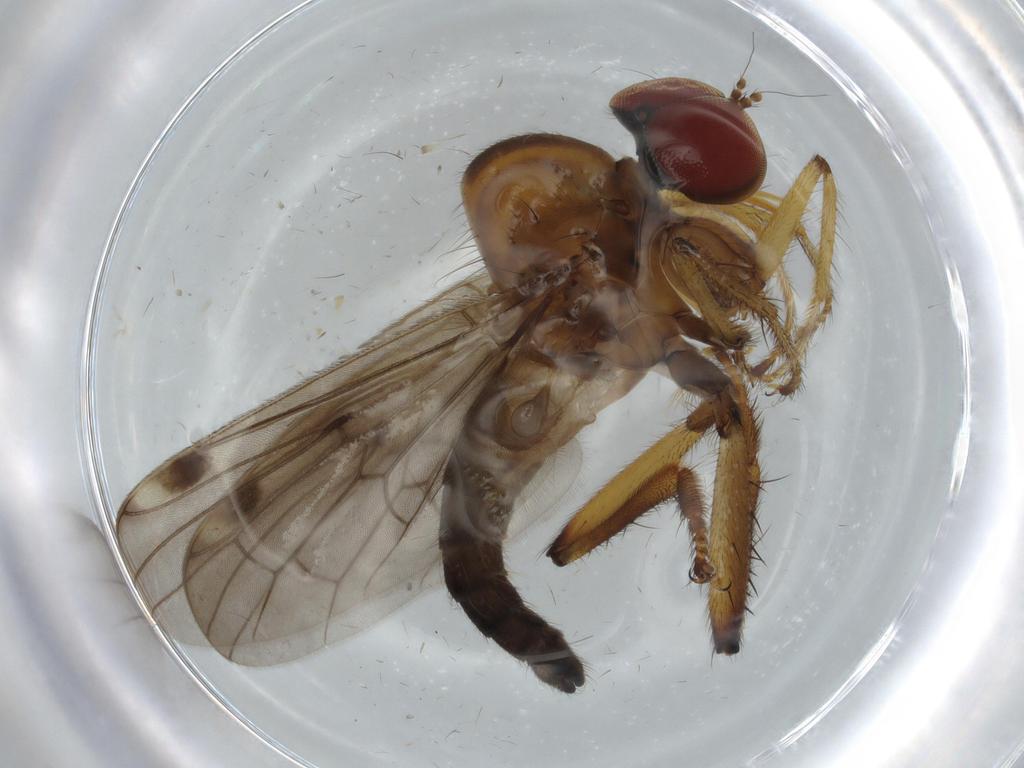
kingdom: Animalia
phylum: Arthropoda
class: Insecta
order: Diptera
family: Hybotidae
